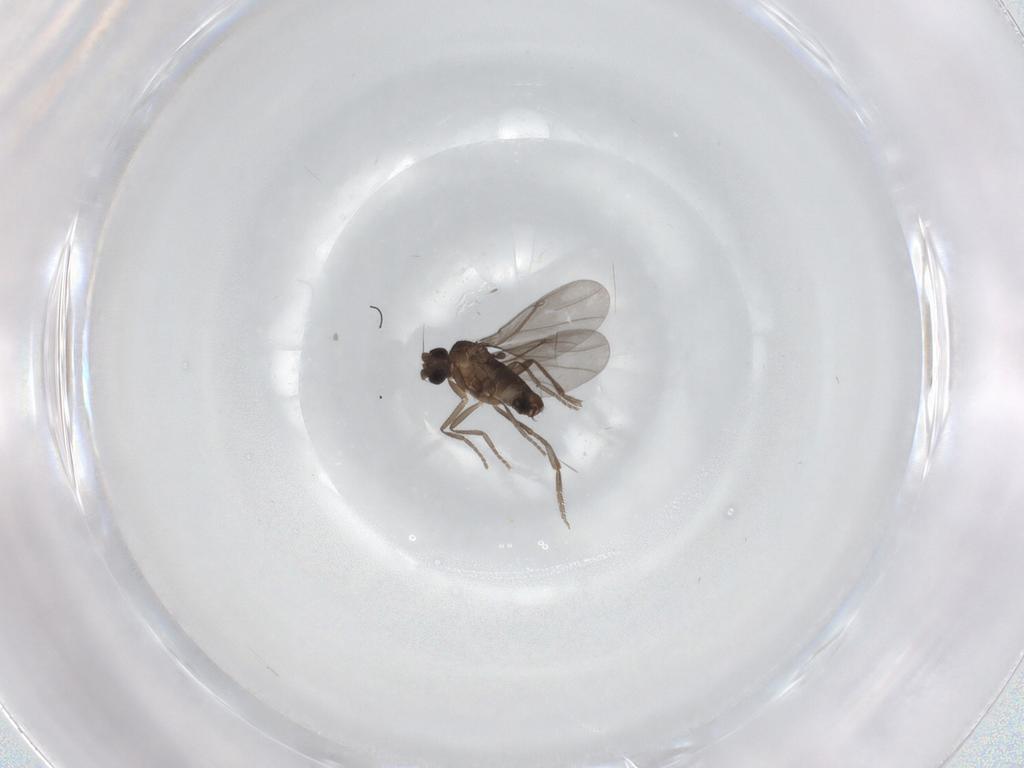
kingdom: Animalia
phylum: Arthropoda
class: Insecta
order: Diptera
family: Phoridae
